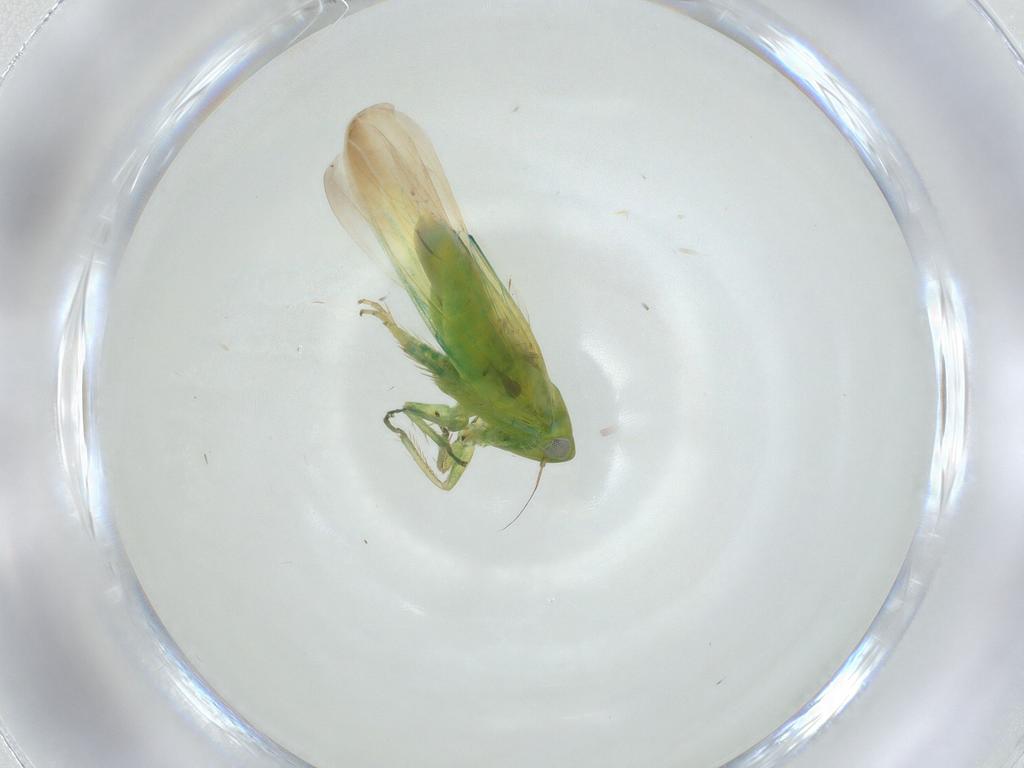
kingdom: Animalia
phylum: Arthropoda
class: Insecta
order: Hemiptera
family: Cicadellidae
